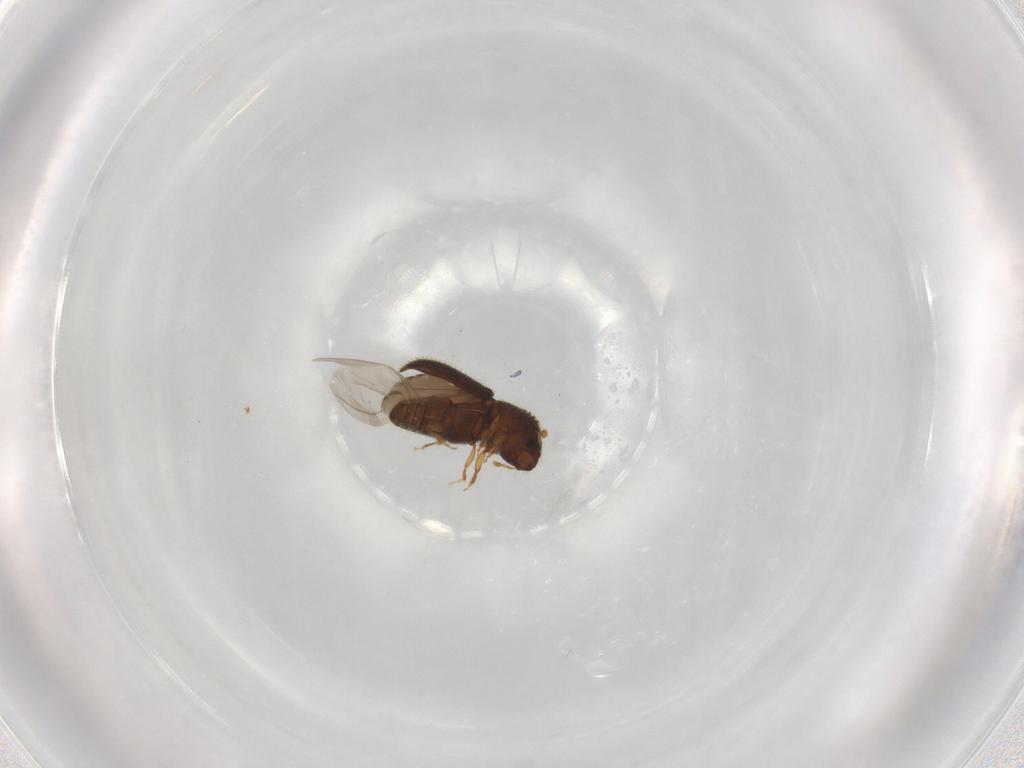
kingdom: Animalia
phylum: Arthropoda
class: Insecta
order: Coleoptera
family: Curculionidae
